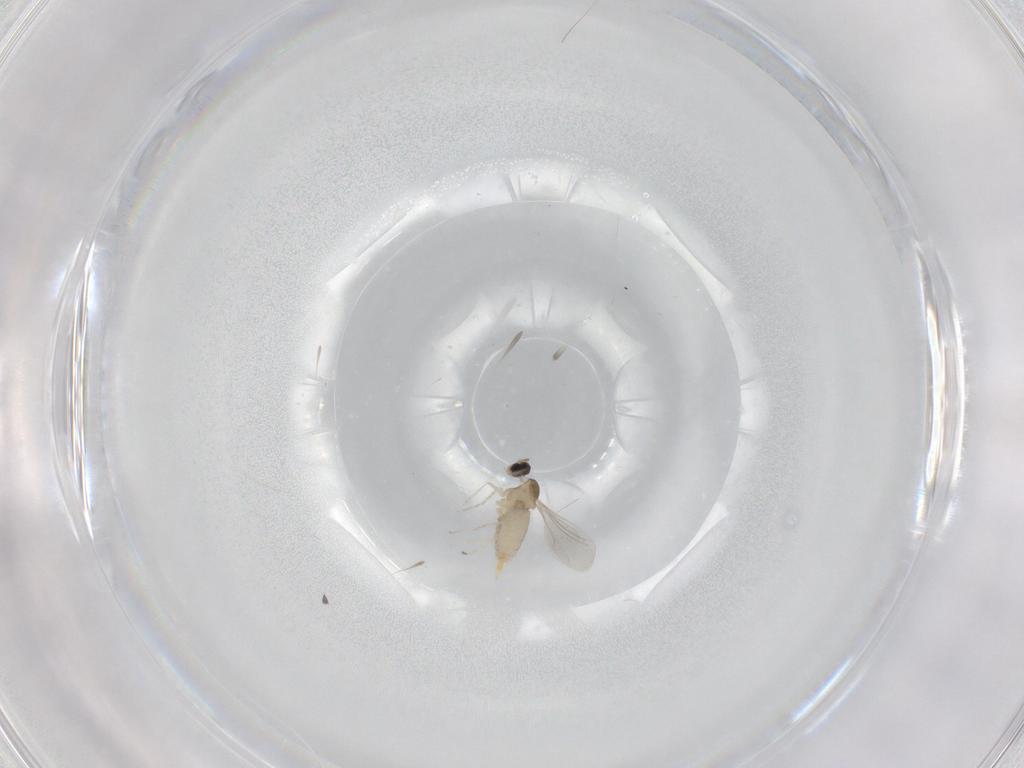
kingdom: Animalia
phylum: Arthropoda
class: Insecta
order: Diptera
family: Cecidomyiidae
